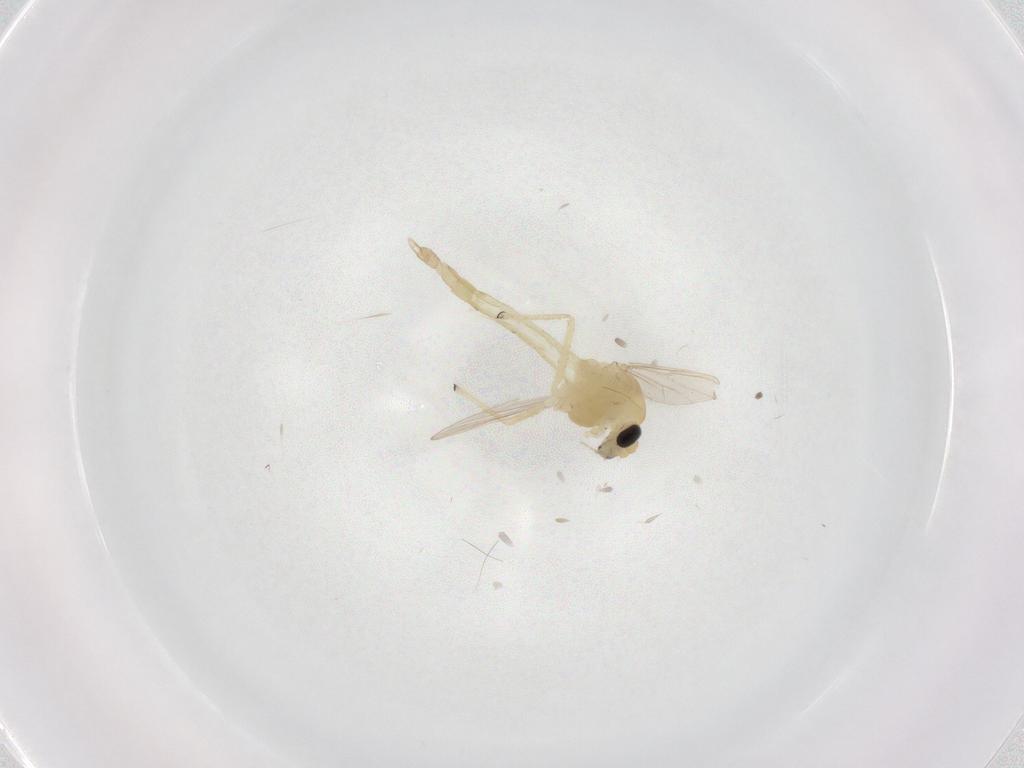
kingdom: Animalia
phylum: Arthropoda
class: Insecta
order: Diptera
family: Chironomidae
